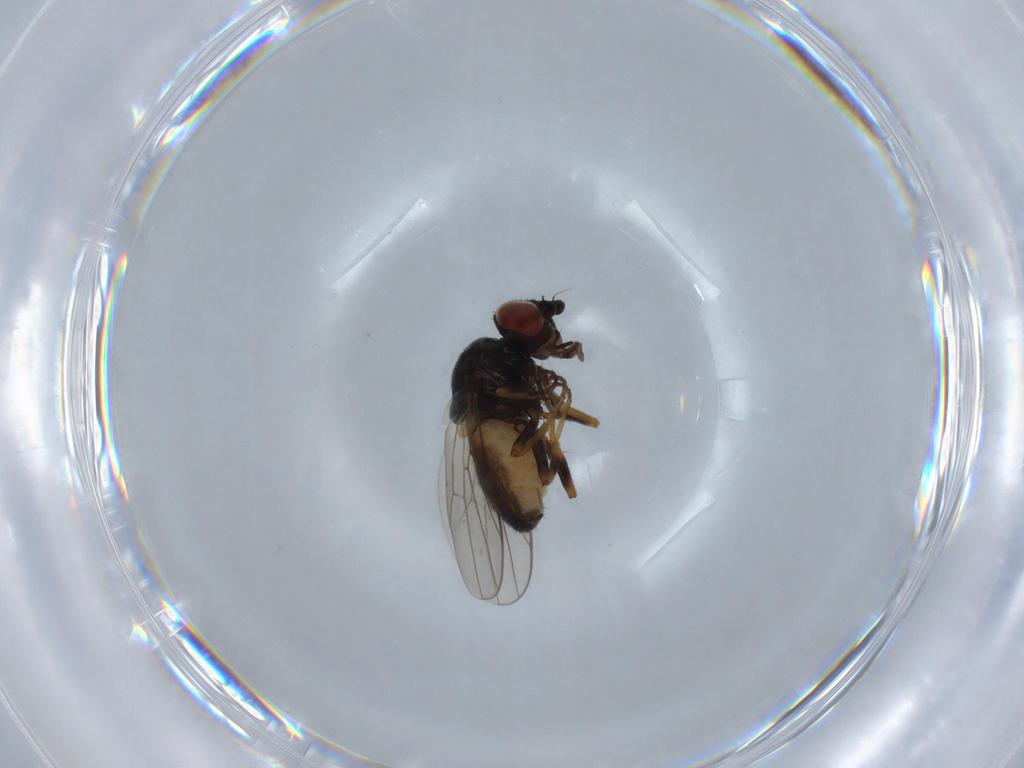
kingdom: Animalia
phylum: Arthropoda
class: Insecta
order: Diptera
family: Chloropidae
